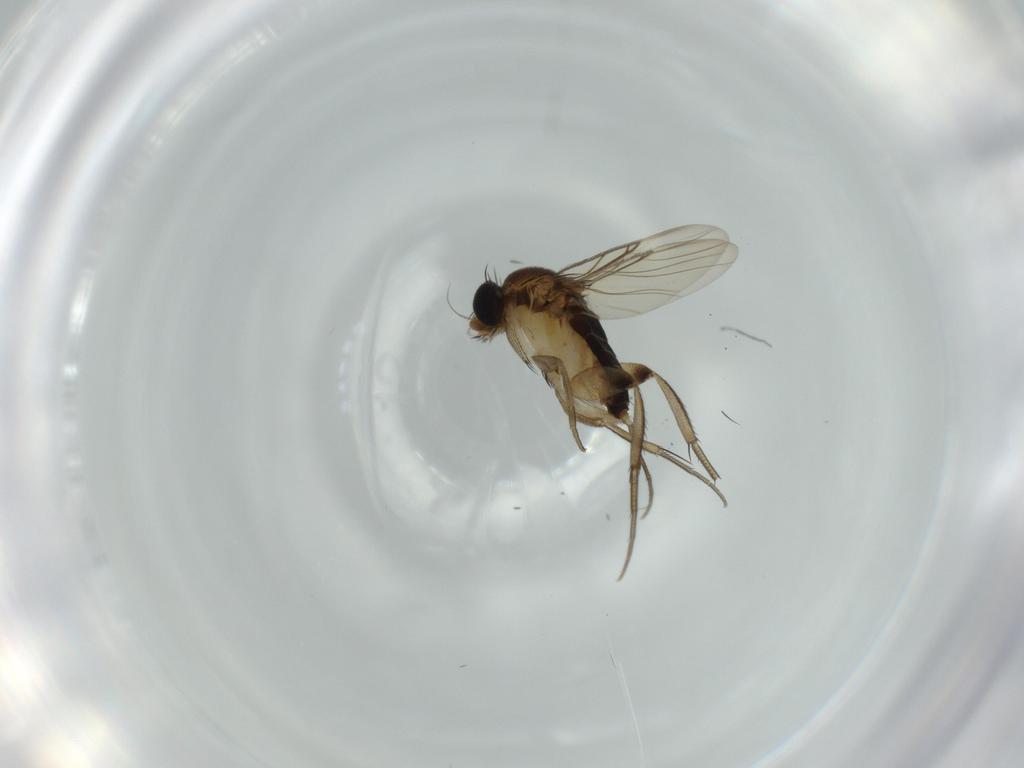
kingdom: Animalia
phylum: Arthropoda
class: Insecta
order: Diptera
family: Phoridae
